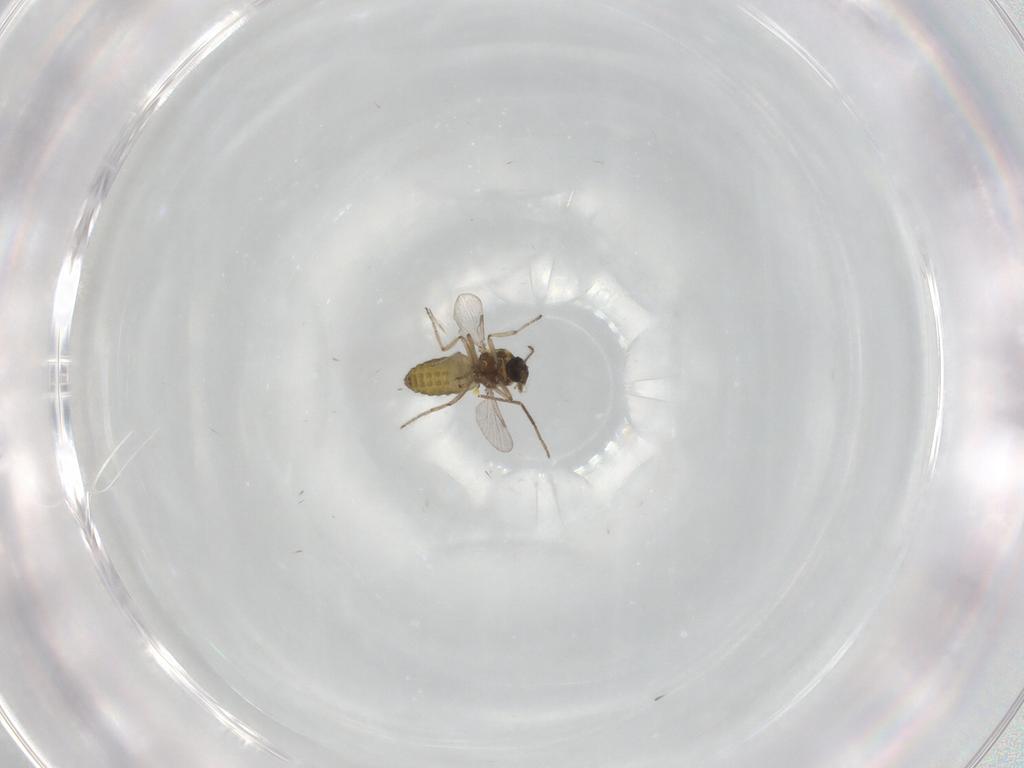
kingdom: Animalia
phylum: Arthropoda
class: Insecta
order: Diptera
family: Ceratopogonidae
